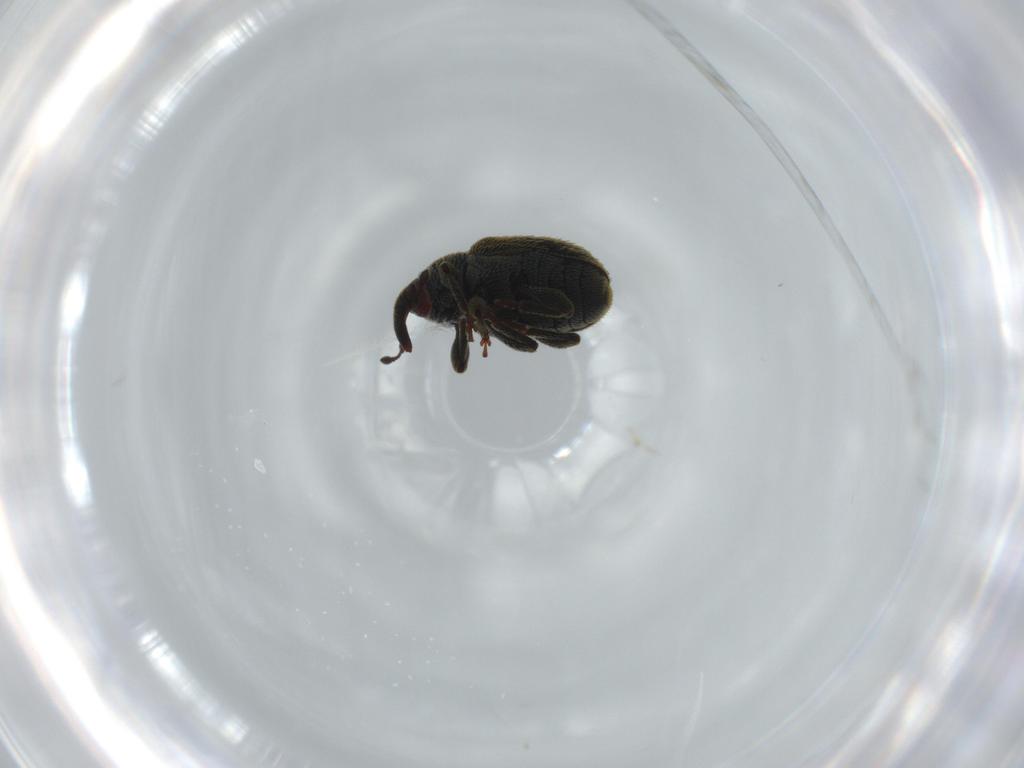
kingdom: Animalia
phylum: Arthropoda
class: Insecta
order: Coleoptera
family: Curculionidae
